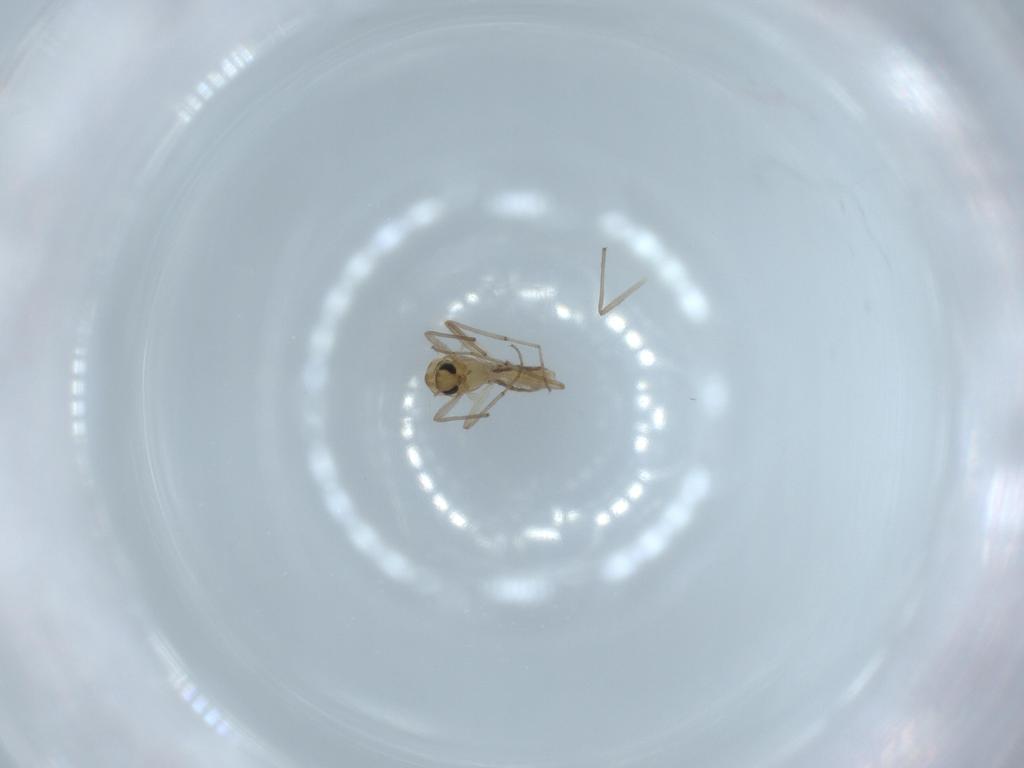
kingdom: Animalia
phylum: Arthropoda
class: Insecta
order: Diptera
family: Chironomidae
